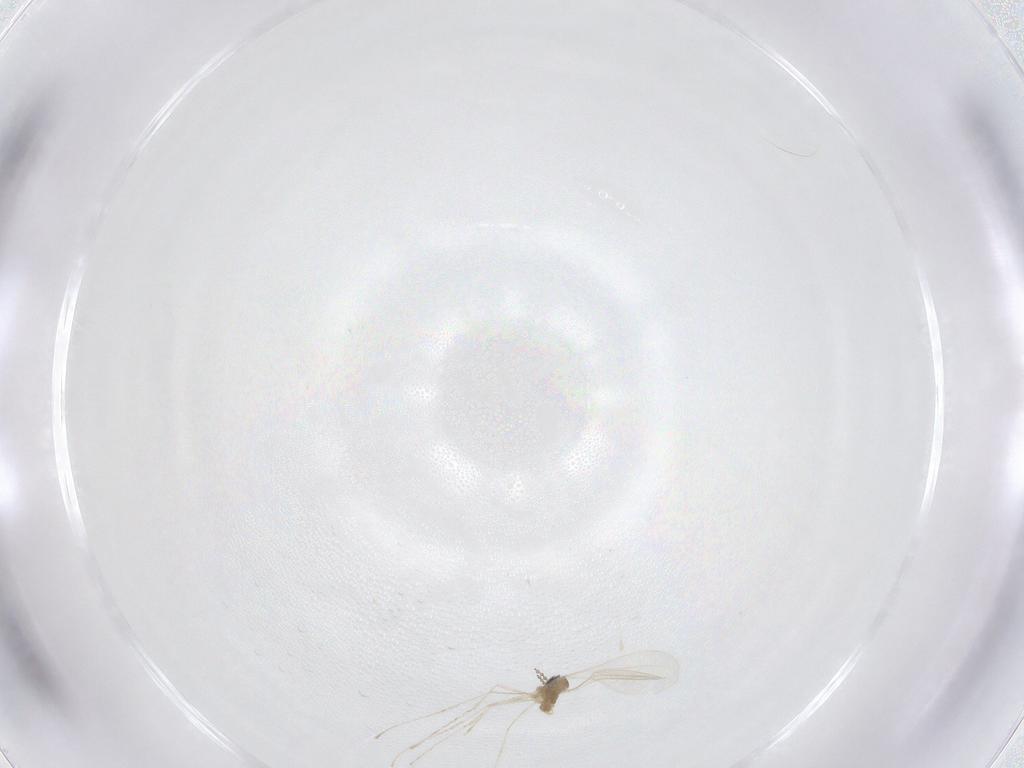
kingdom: Animalia
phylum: Arthropoda
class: Insecta
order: Diptera
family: Cecidomyiidae
